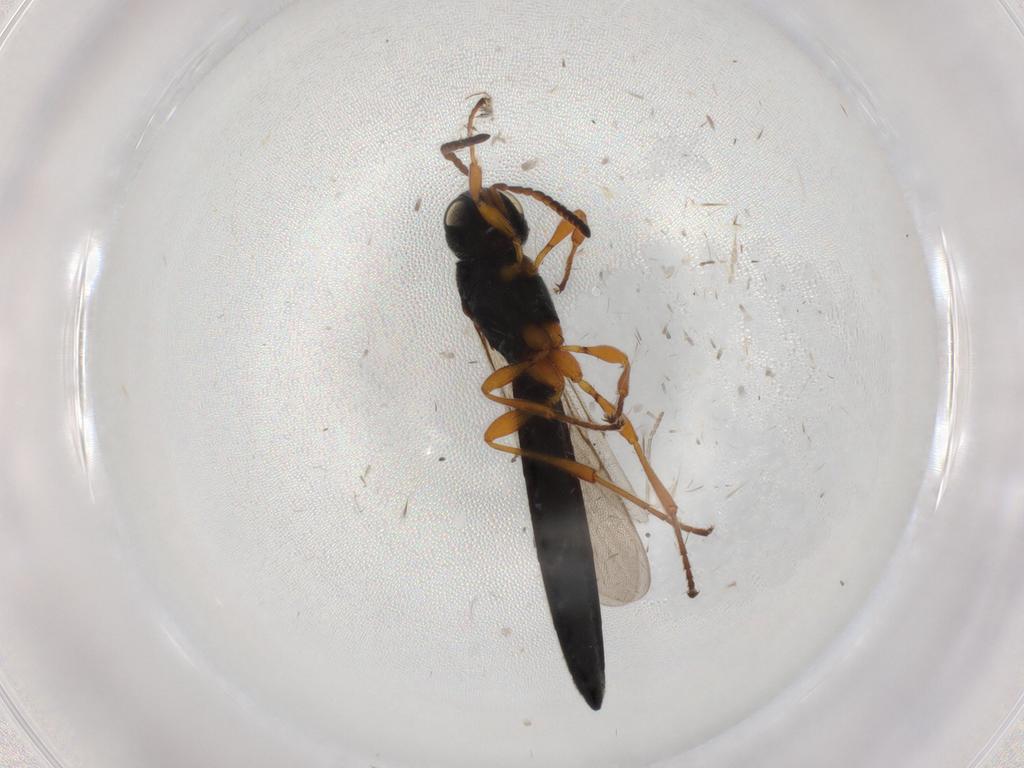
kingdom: Animalia
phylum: Arthropoda
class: Insecta
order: Hymenoptera
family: Scelionidae
